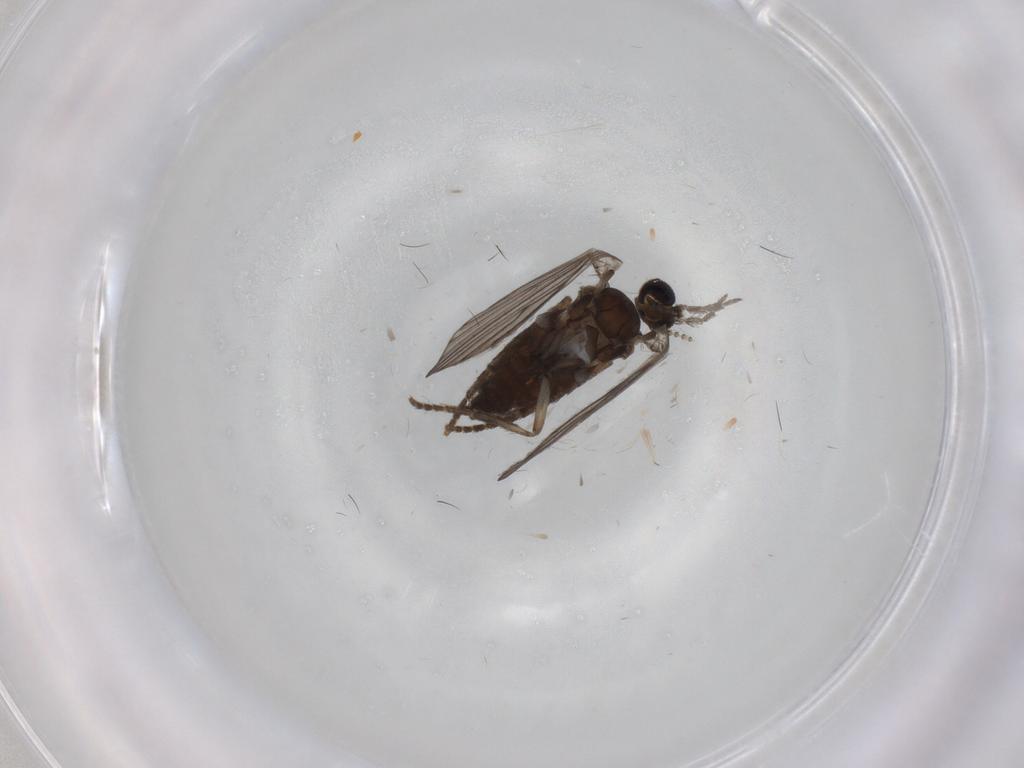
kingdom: Animalia
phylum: Arthropoda
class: Insecta
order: Diptera
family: Psychodidae
